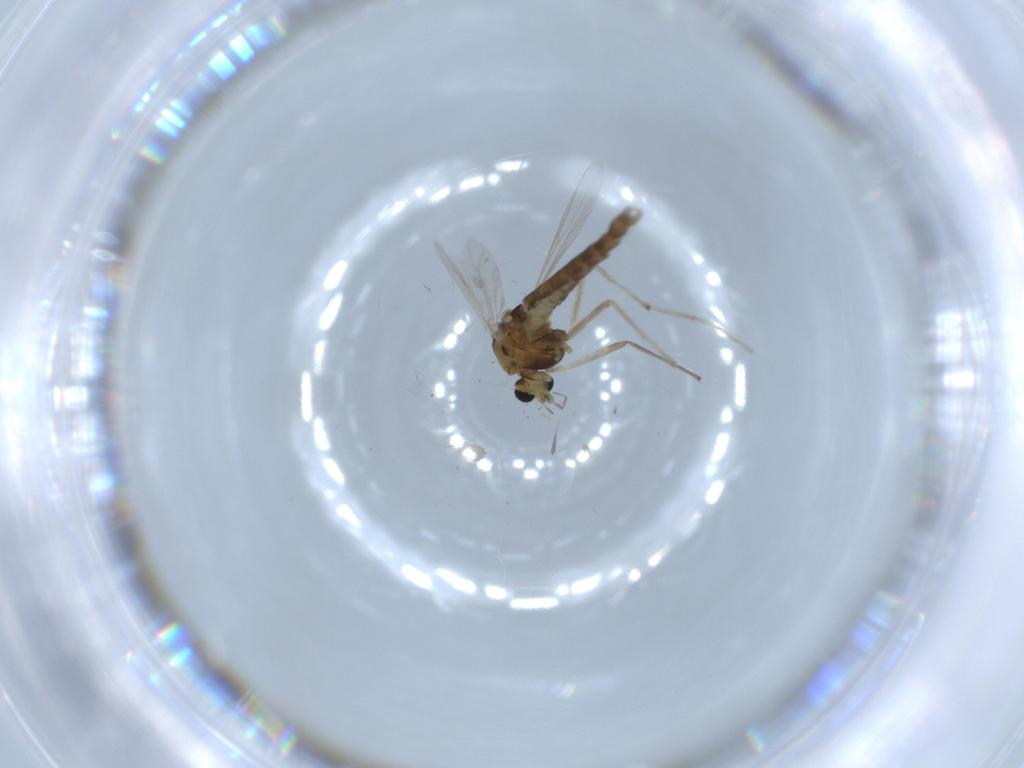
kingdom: Animalia
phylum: Arthropoda
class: Insecta
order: Diptera
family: Chironomidae
